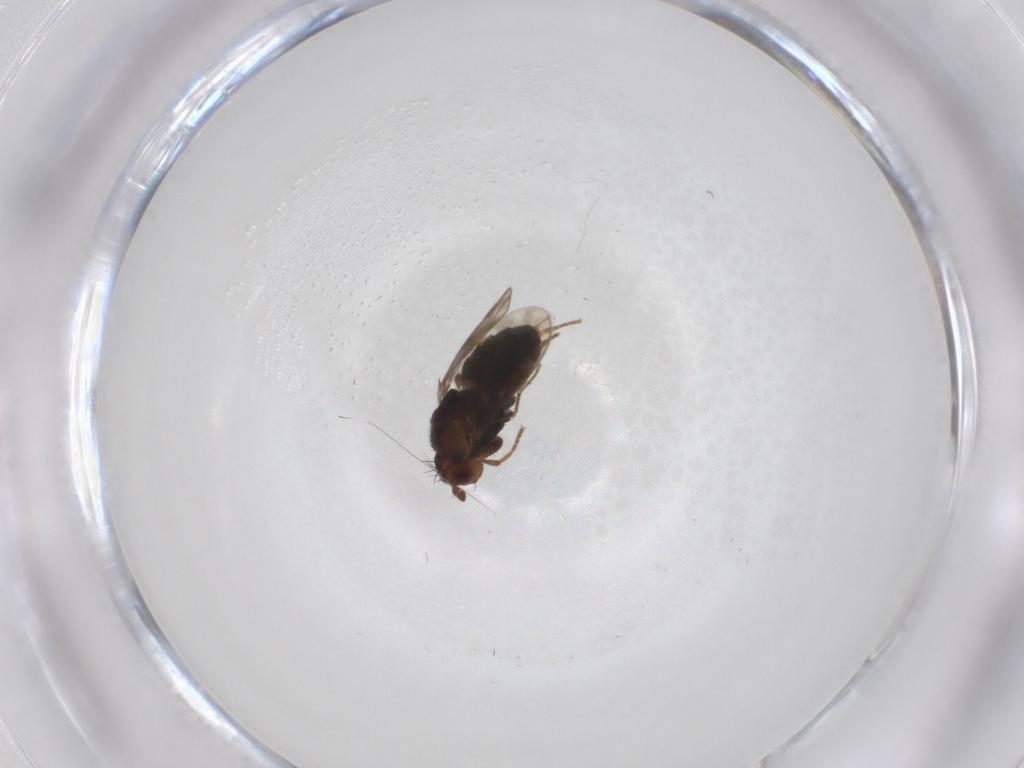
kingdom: Animalia
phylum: Arthropoda
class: Insecta
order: Diptera
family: Sphaeroceridae
